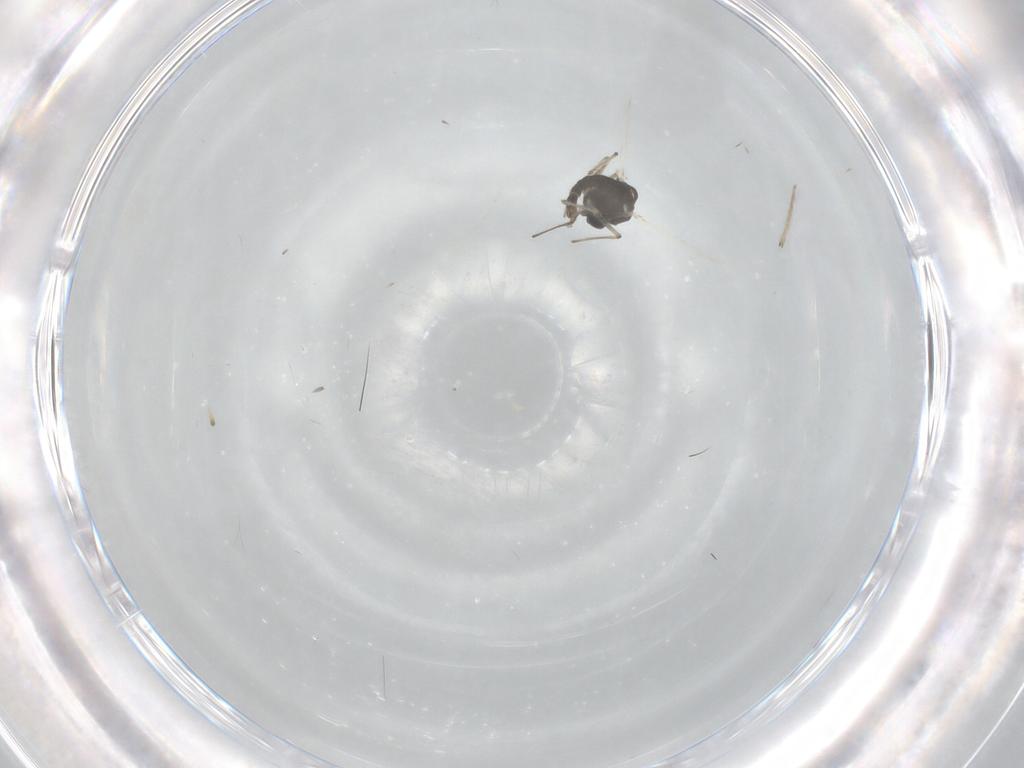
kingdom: Animalia
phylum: Arthropoda
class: Insecta
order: Diptera
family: Chironomidae
